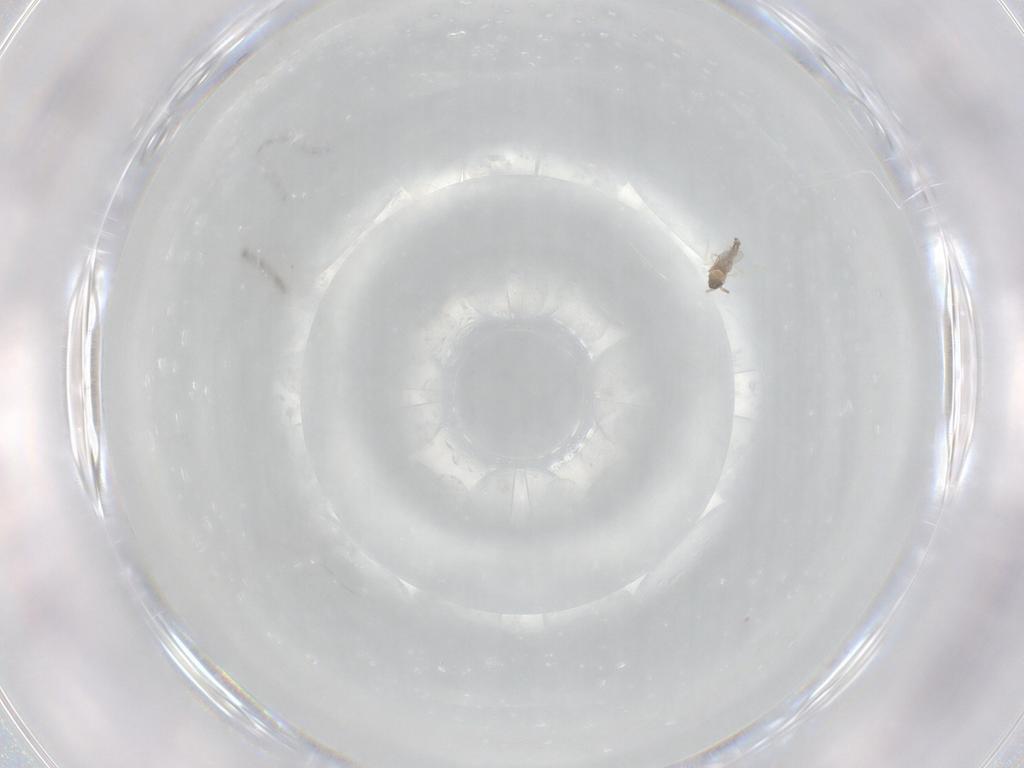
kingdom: Animalia
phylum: Arthropoda
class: Insecta
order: Diptera
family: Cecidomyiidae
